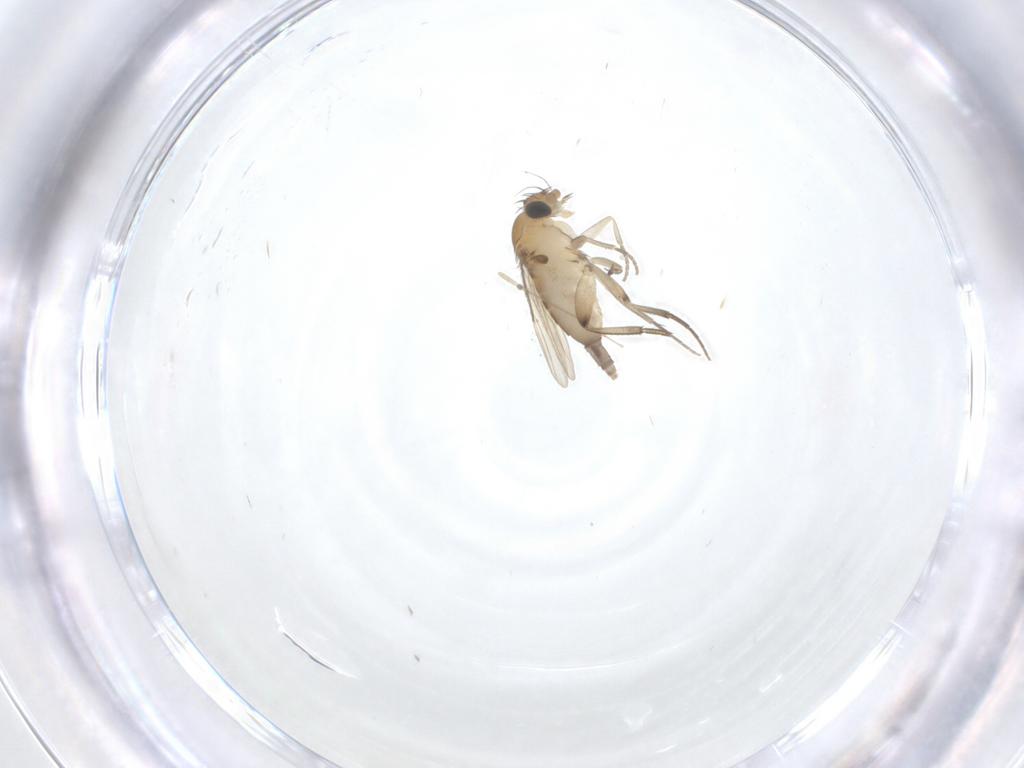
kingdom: Animalia
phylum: Arthropoda
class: Insecta
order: Diptera
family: Phoridae
